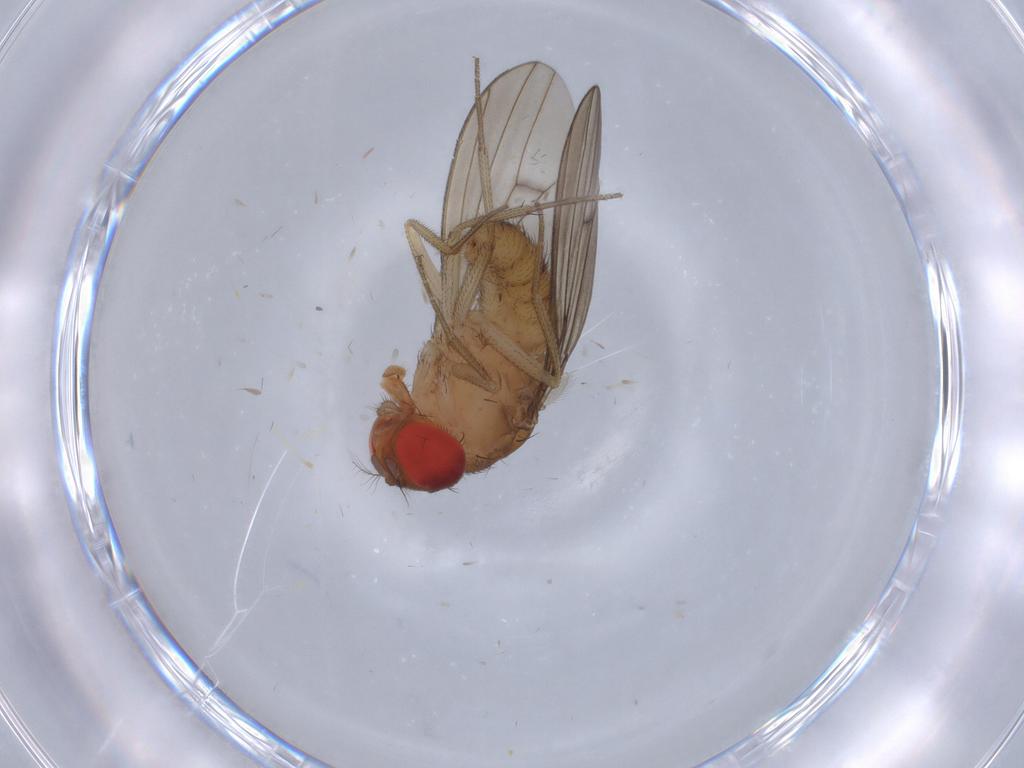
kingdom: Animalia
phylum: Arthropoda
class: Insecta
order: Diptera
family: Drosophilidae
